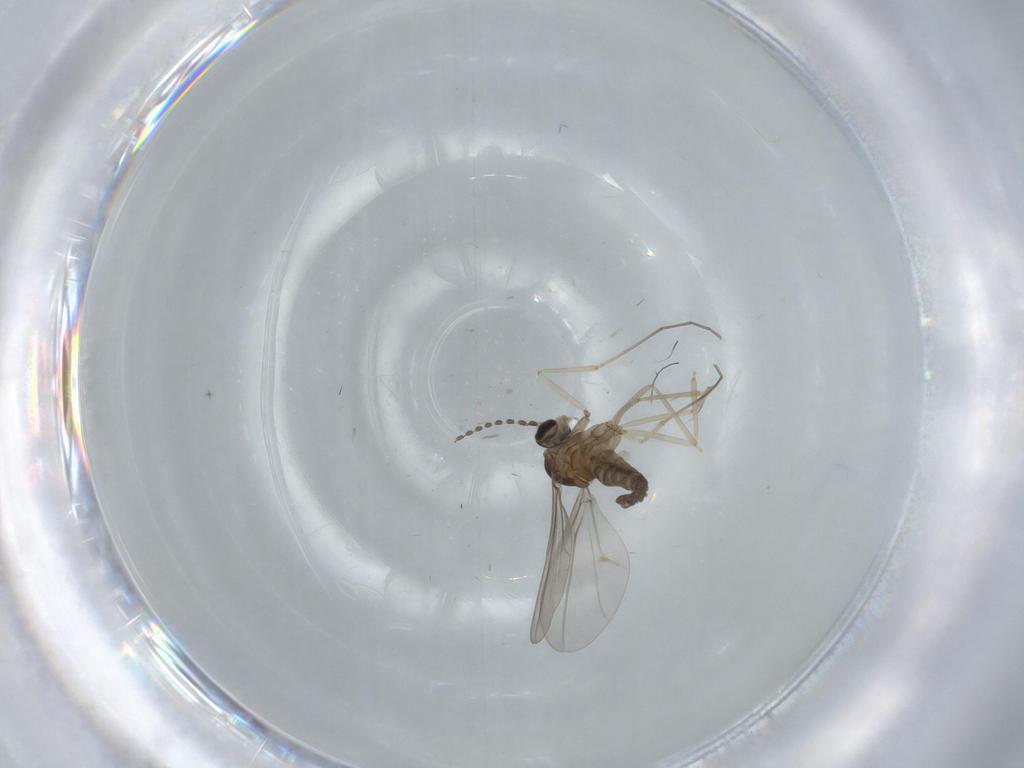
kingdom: Animalia
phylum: Arthropoda
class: Insecta
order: Diptera
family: Cecidomyiidae
